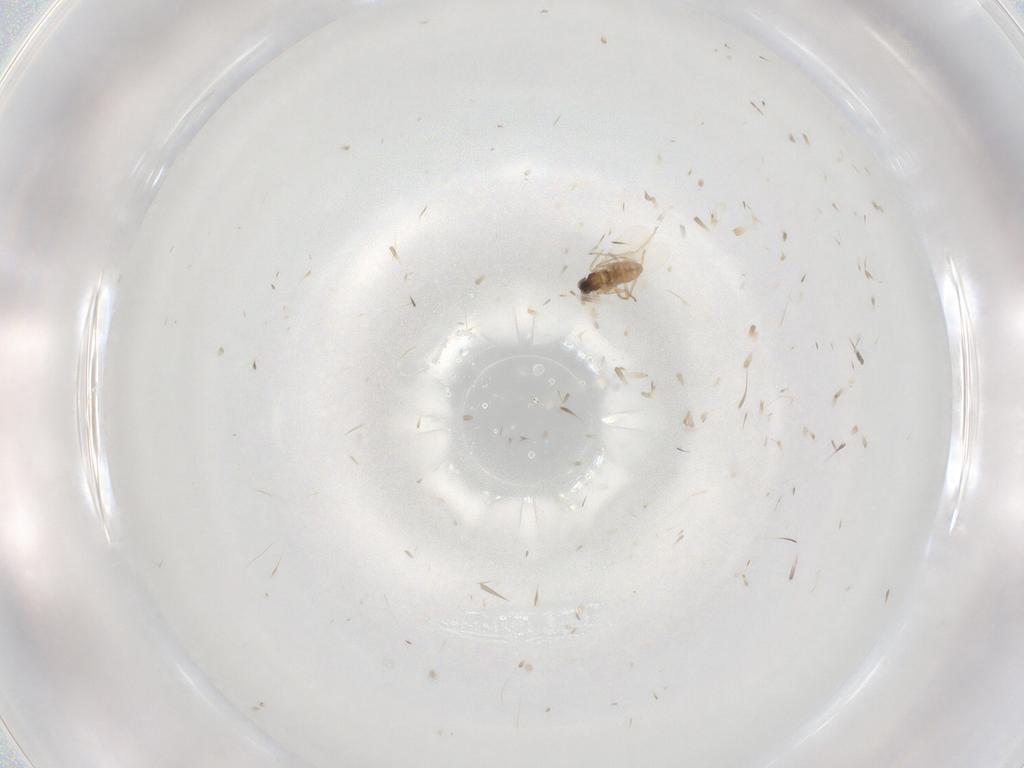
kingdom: Animalia
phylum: Arthropoda
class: Insecta
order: Diptera
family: Cecidomyiidae
